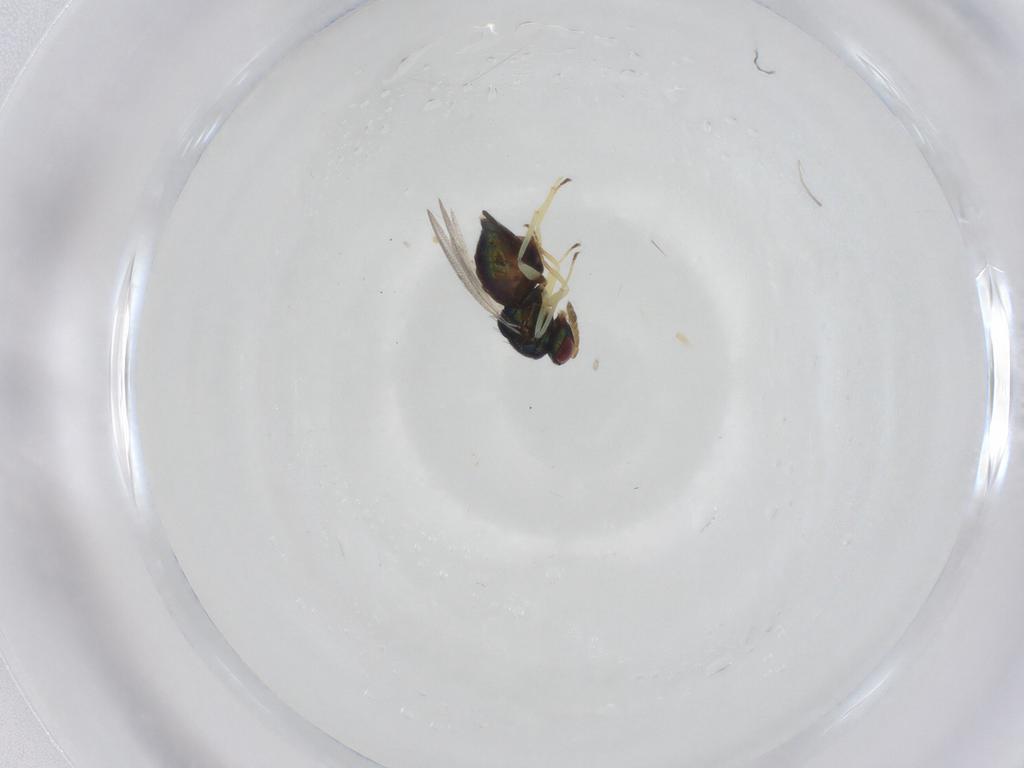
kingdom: Animalia
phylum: Arthropoda
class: Insecta
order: Hymenoptera
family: Eulophidae
